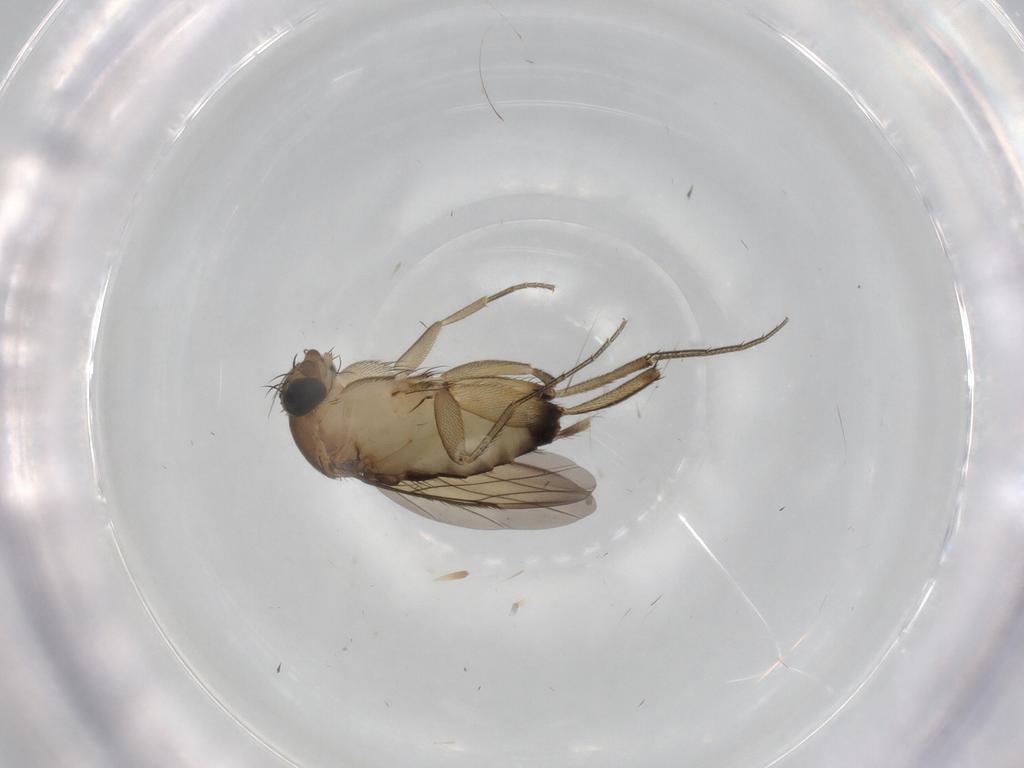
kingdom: Animalia
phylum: Arthropoda
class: Insecta
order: Diptera
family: Phoridae
